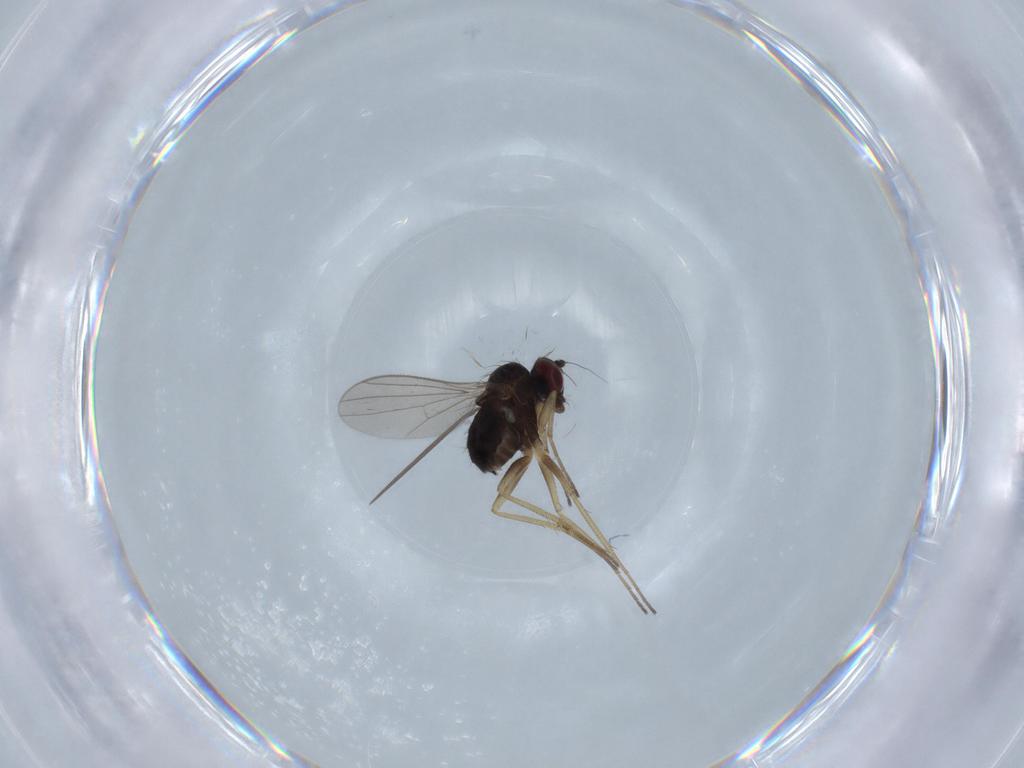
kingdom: Animalia
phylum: Arthropoda
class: Insecta
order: Diptera
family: Dolichopodidae
